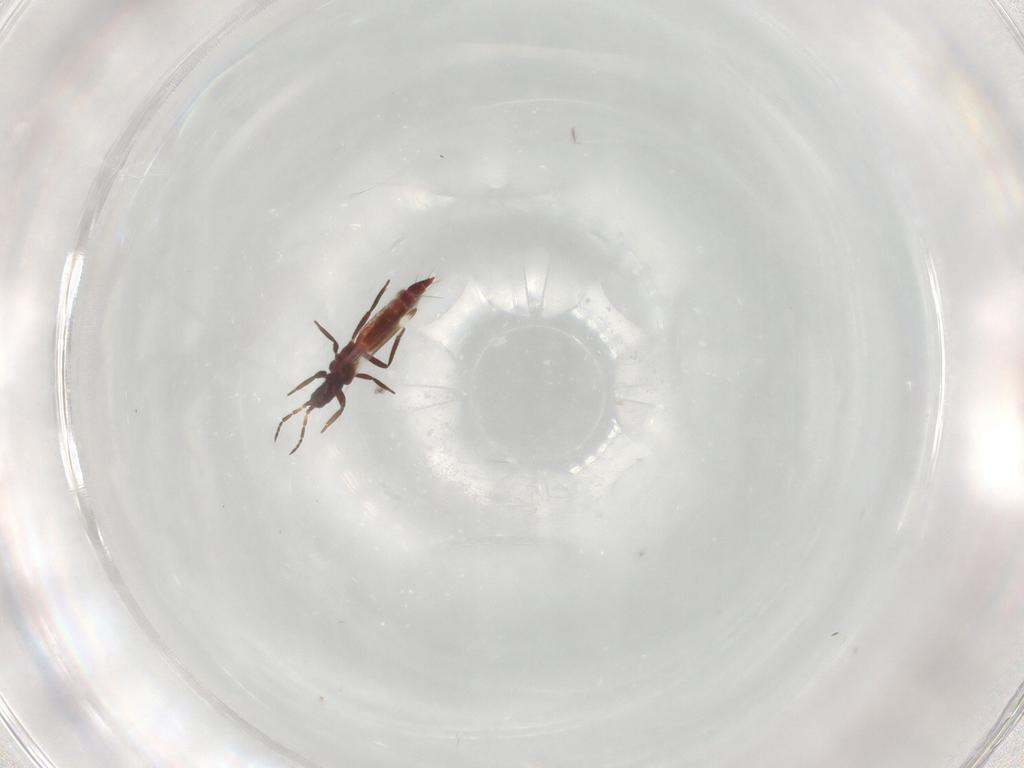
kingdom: Animalia
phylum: Arthropoda
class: Insecta
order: Thysanoptera
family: Aeolothripidae
